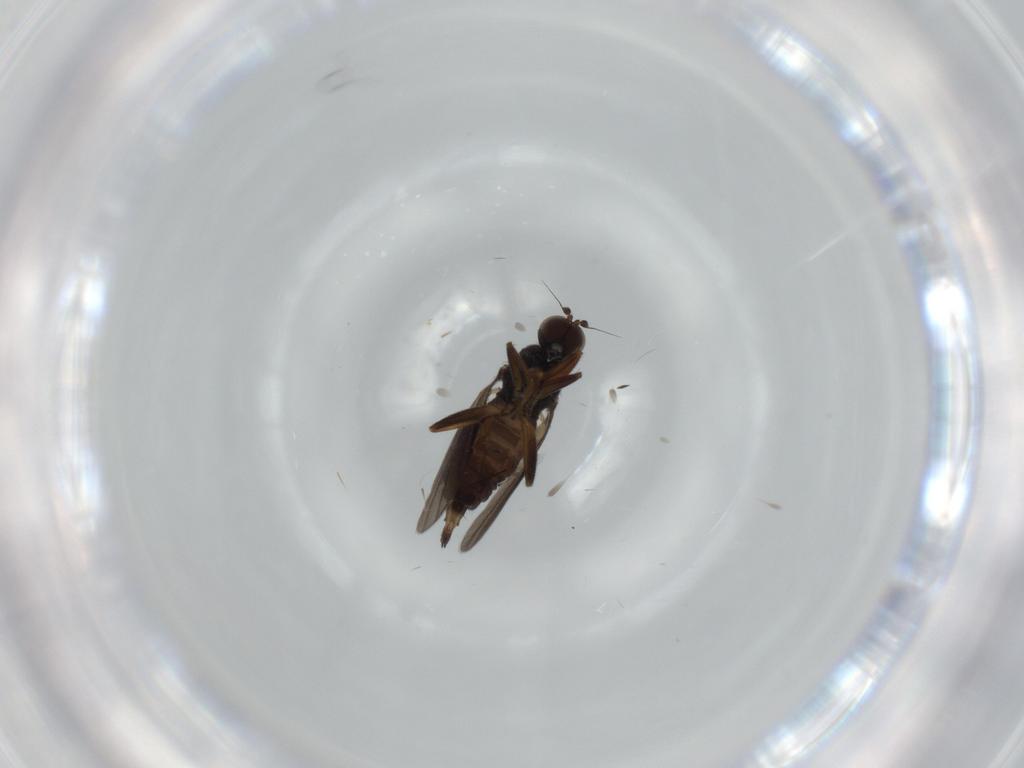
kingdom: Animalia
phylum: Arthropoda
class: Insecta
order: Diptera
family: Hybotidae
